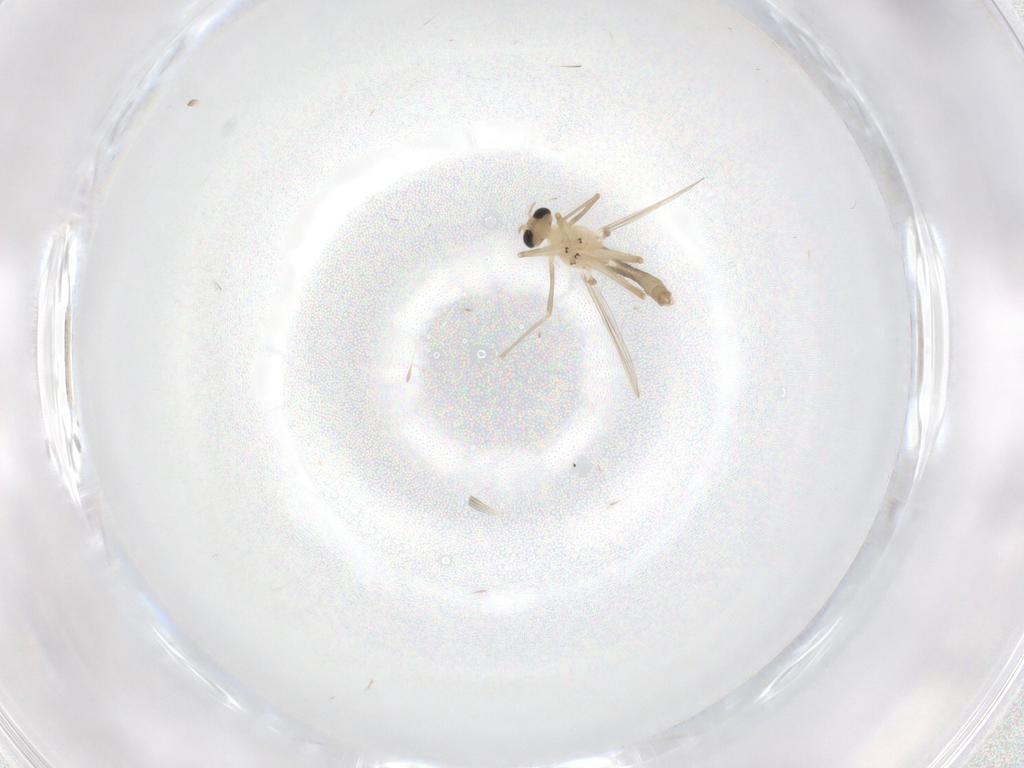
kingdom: Animalia
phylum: Arthropoda
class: Insecta
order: Diptera
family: Chironomidae
